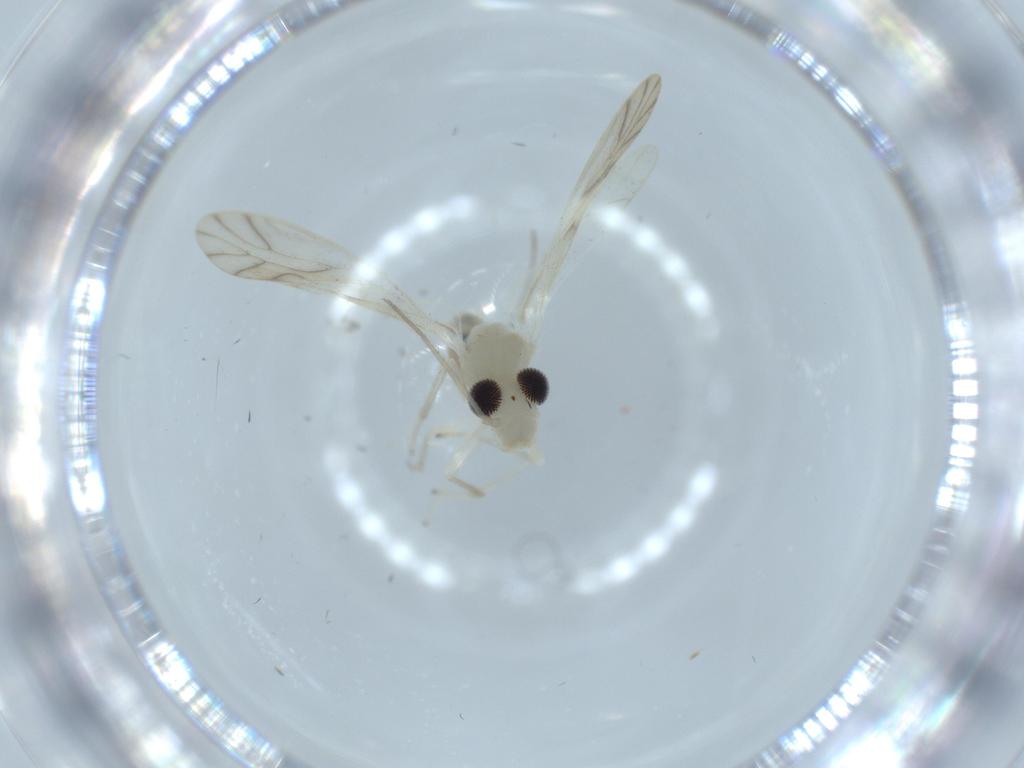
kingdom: Animalia
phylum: Arthropoda
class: Insecta
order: Psocodea
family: Caeciliusidae
